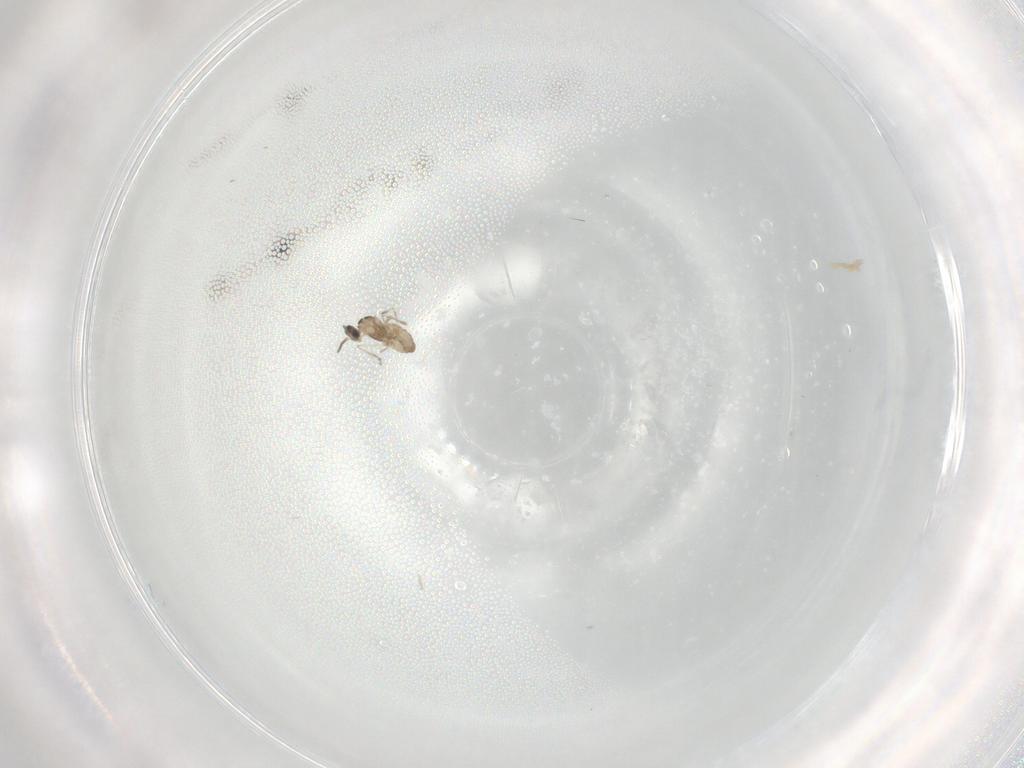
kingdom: Animalia
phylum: Arthropoda
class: Insecta
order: Diptera
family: Cecidomyiidae
